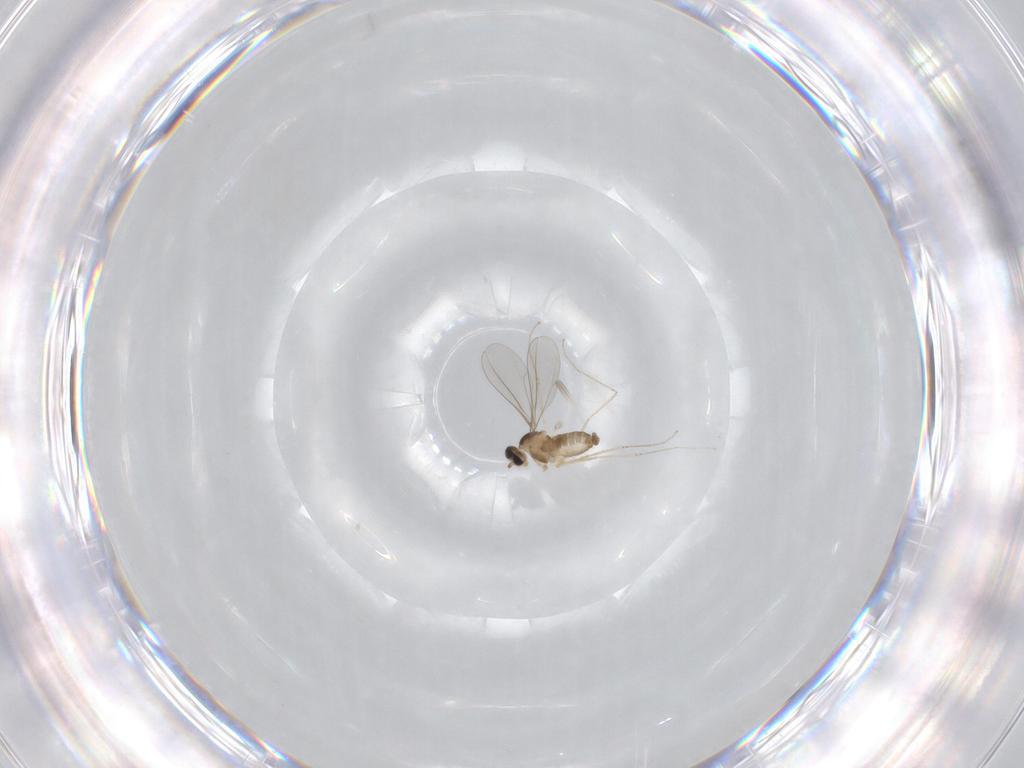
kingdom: Animalia
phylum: Arthropoda
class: Insecta
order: Diptera
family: Cecidomyiidae
